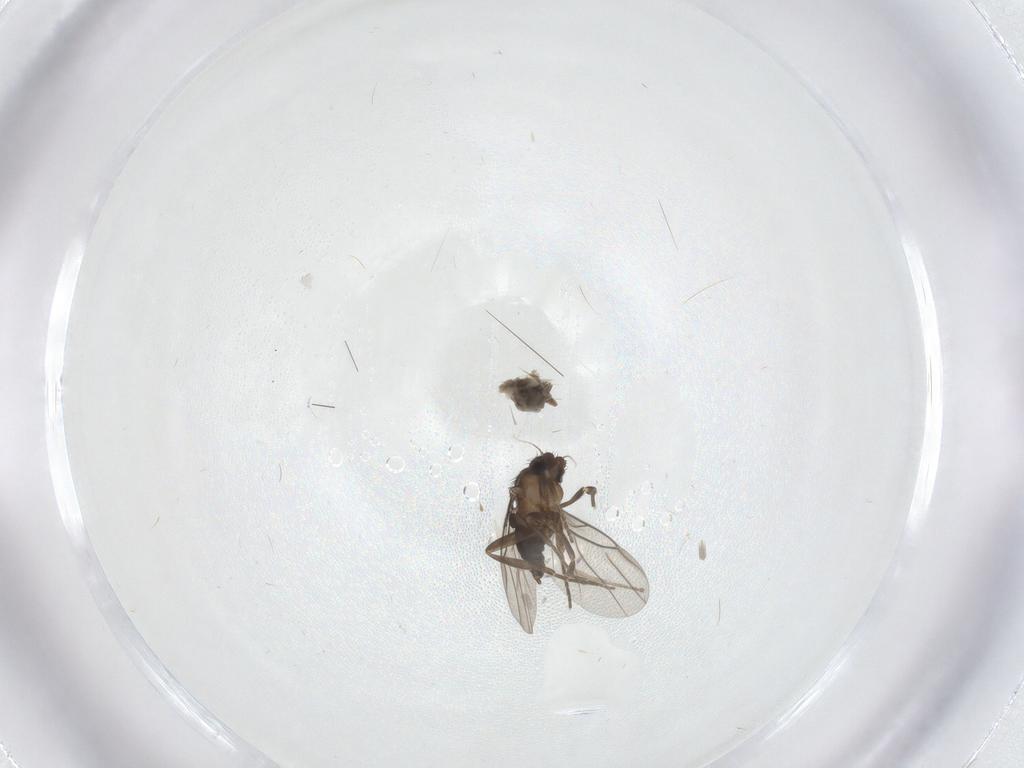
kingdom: Animalia
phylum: Arthropoda
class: Insecta
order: Diptera
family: Psychodidae
